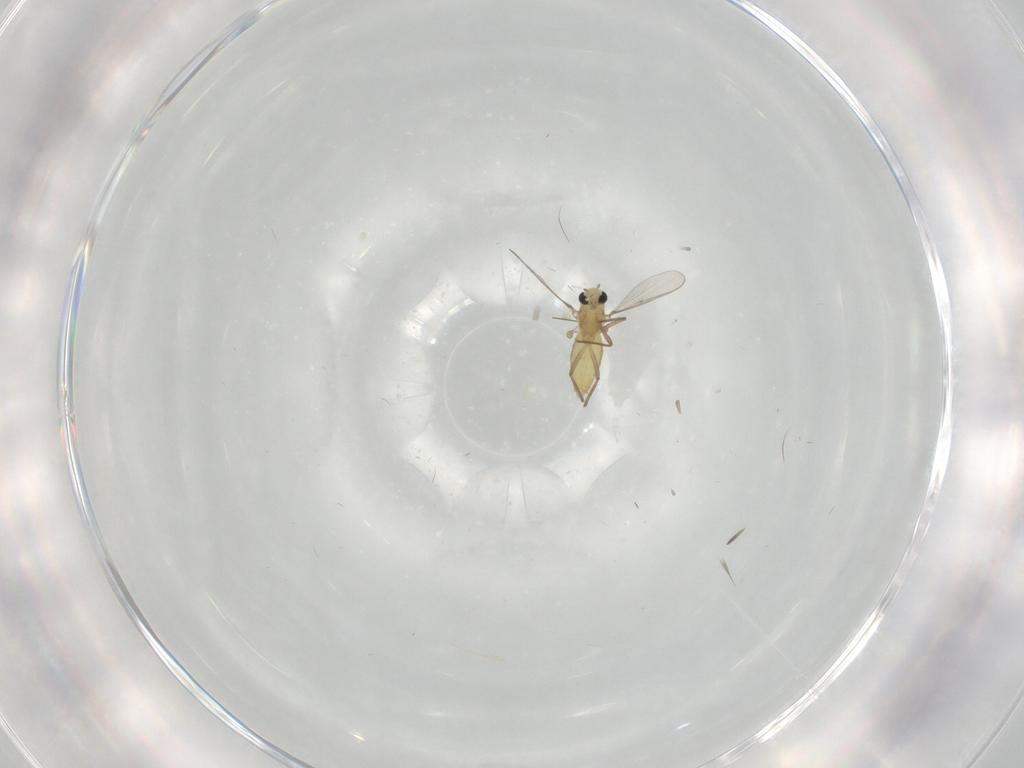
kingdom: Animalia
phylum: Arthropoda
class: Insecta
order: Diptera
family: Chironomidae
